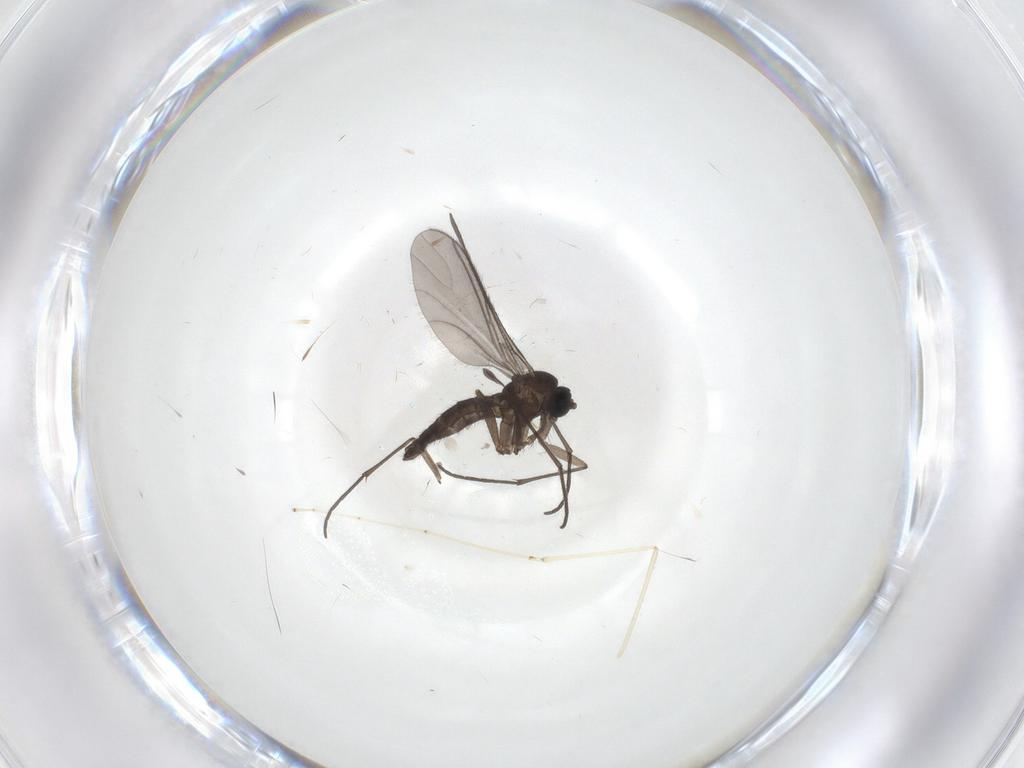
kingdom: Animalia
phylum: Arthropoda
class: Insecta
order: Diptera
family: Sciaridae
